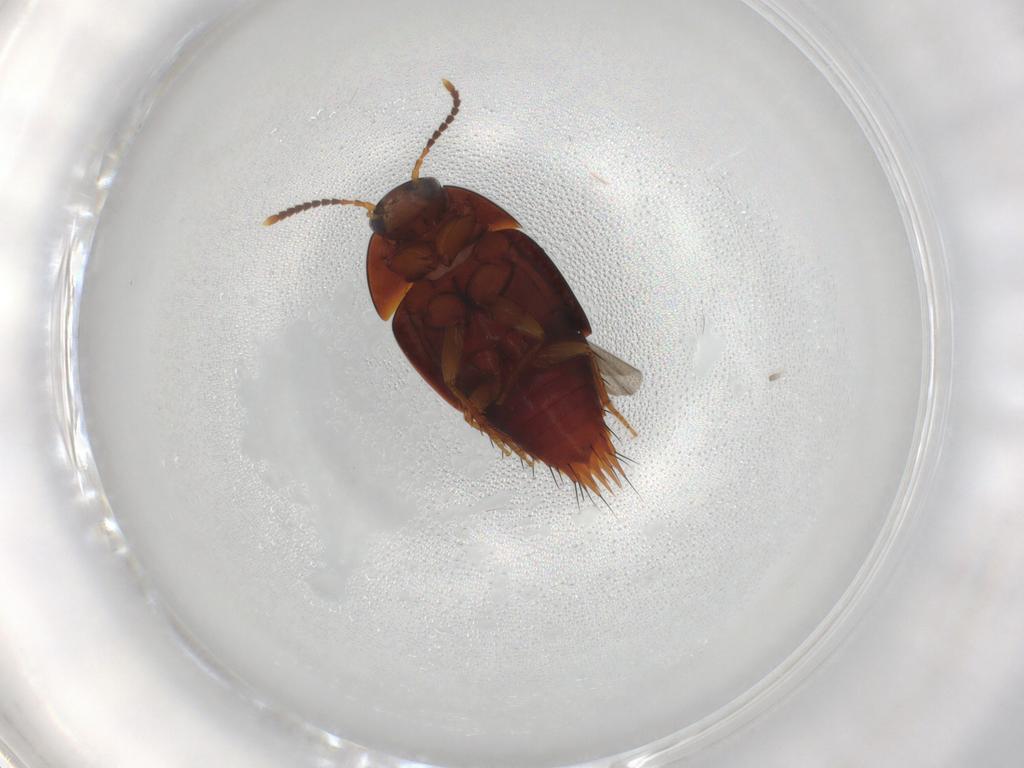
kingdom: Animalia
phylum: Arthropoda
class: Insecta
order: Coleoptera
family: Staphylinidae
